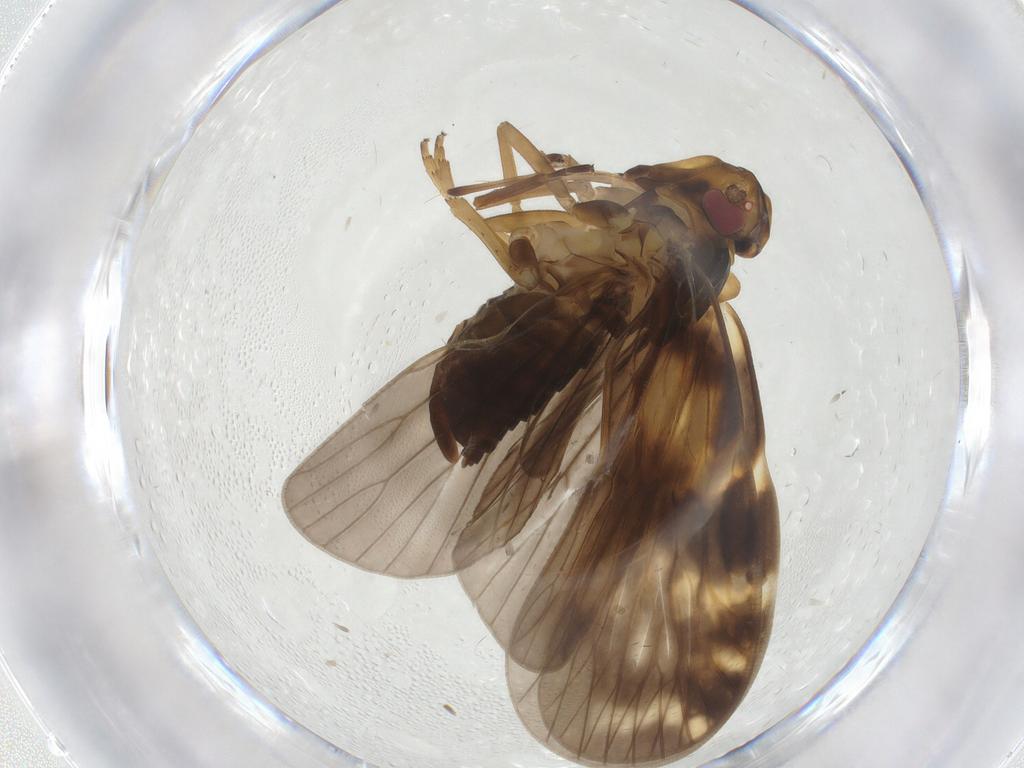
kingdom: Animalia
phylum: Arthropoda
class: Insecta
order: Hemiptera
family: Cixiidae
